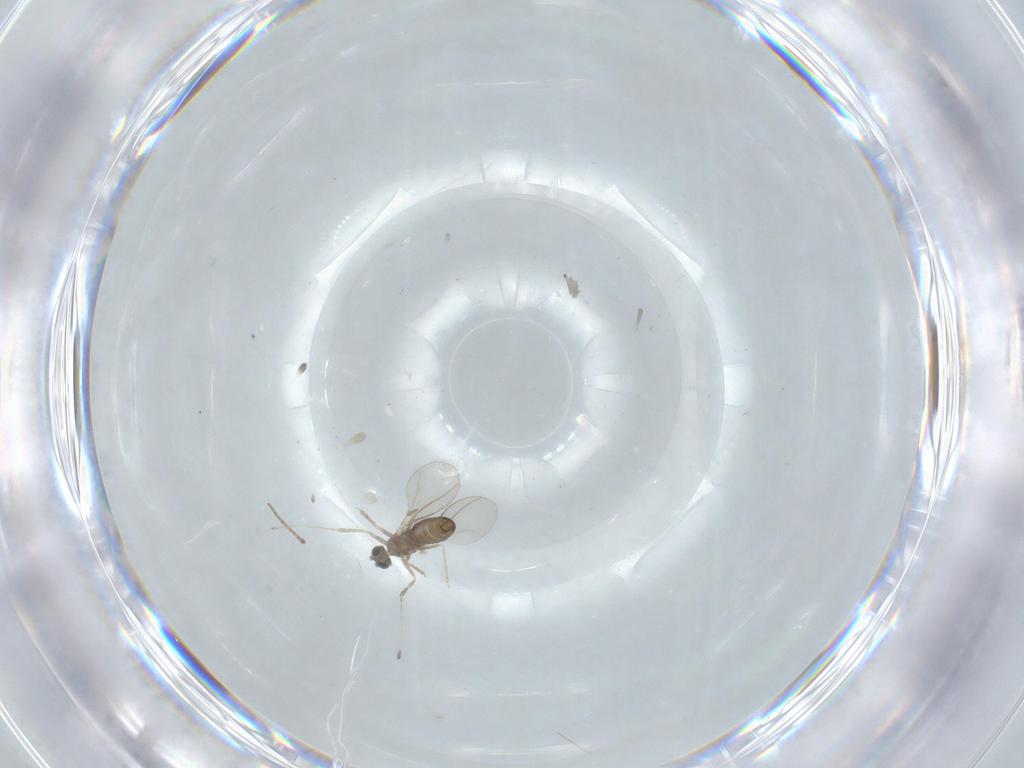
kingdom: Animalia
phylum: Arthropoda
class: Insecta
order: Diptera
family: Cecidomyiidae
